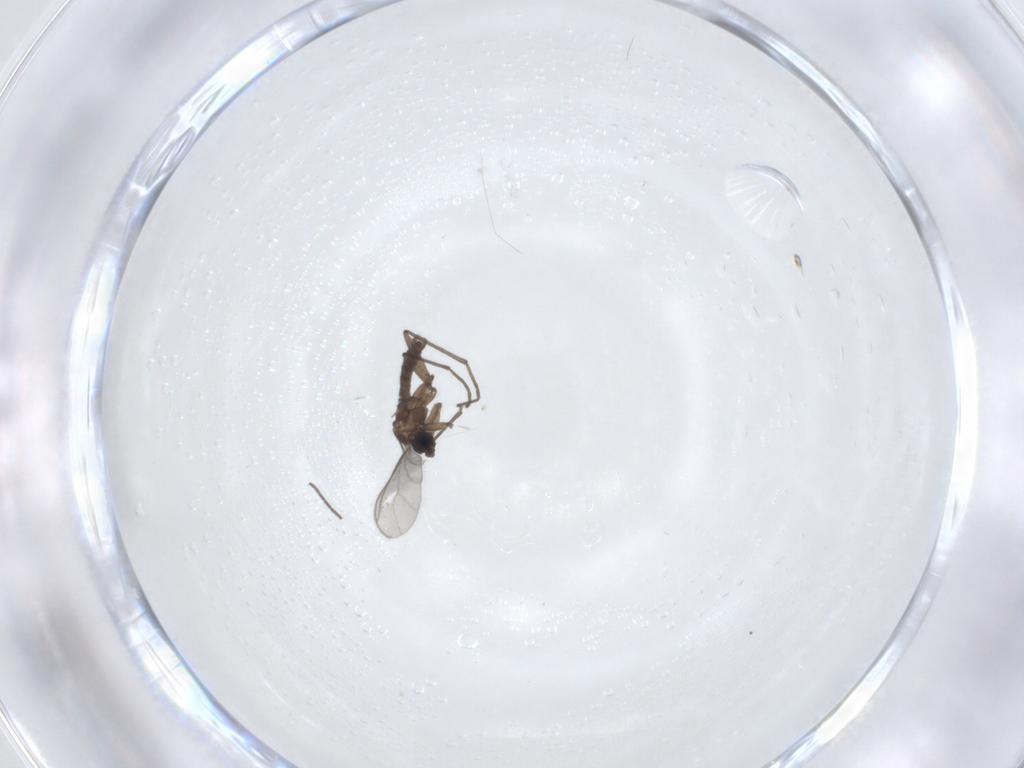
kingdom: Animalia
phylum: Arthropoda
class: Insecta
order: Diptera
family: Sciaridae
